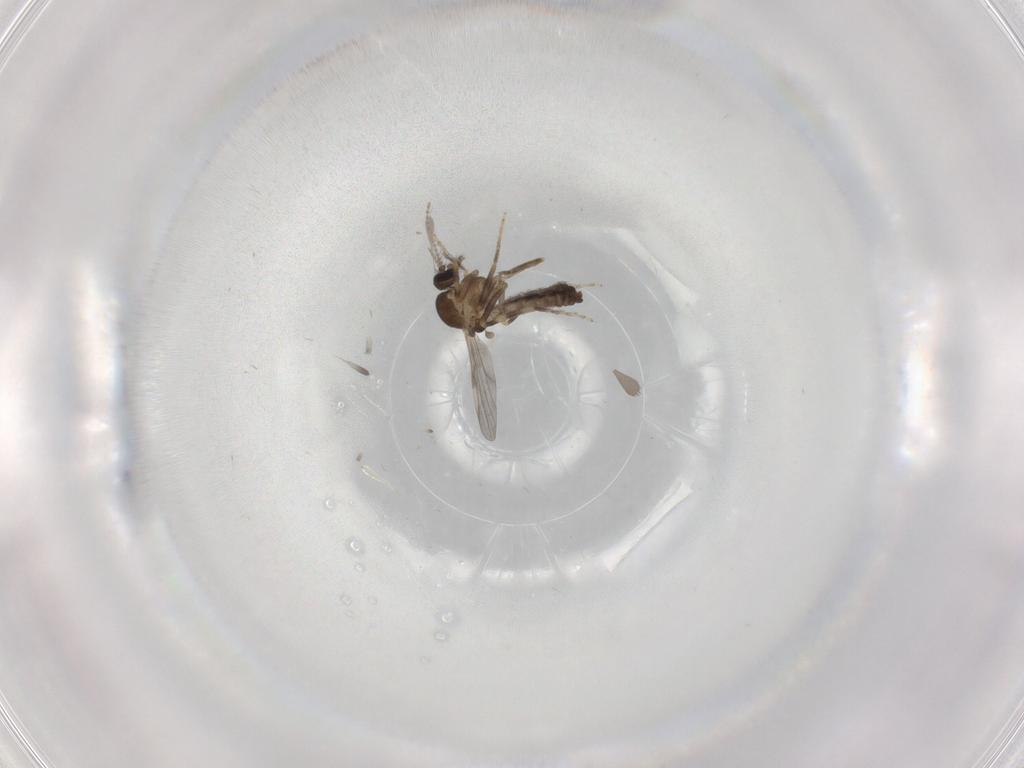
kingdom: Animalia
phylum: Arthropoda
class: Insecta
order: Diptera
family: Ceratopogonidae
